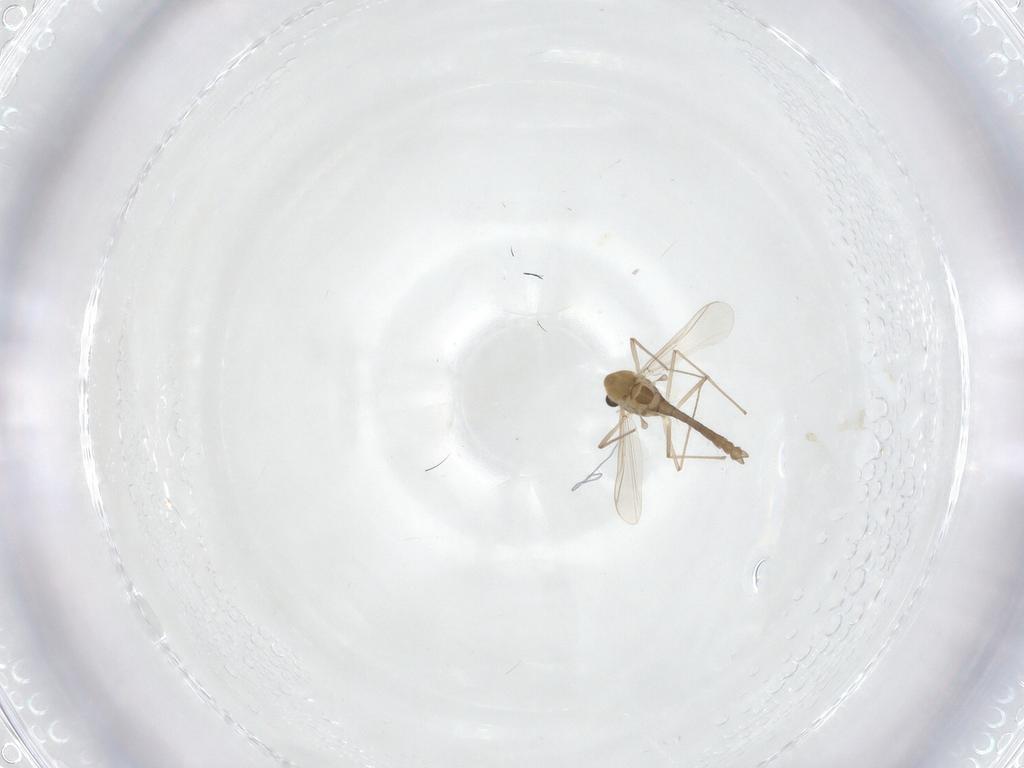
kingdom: Animalia
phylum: Arthropoda
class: Insecta
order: Diptera
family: Chironomidae
